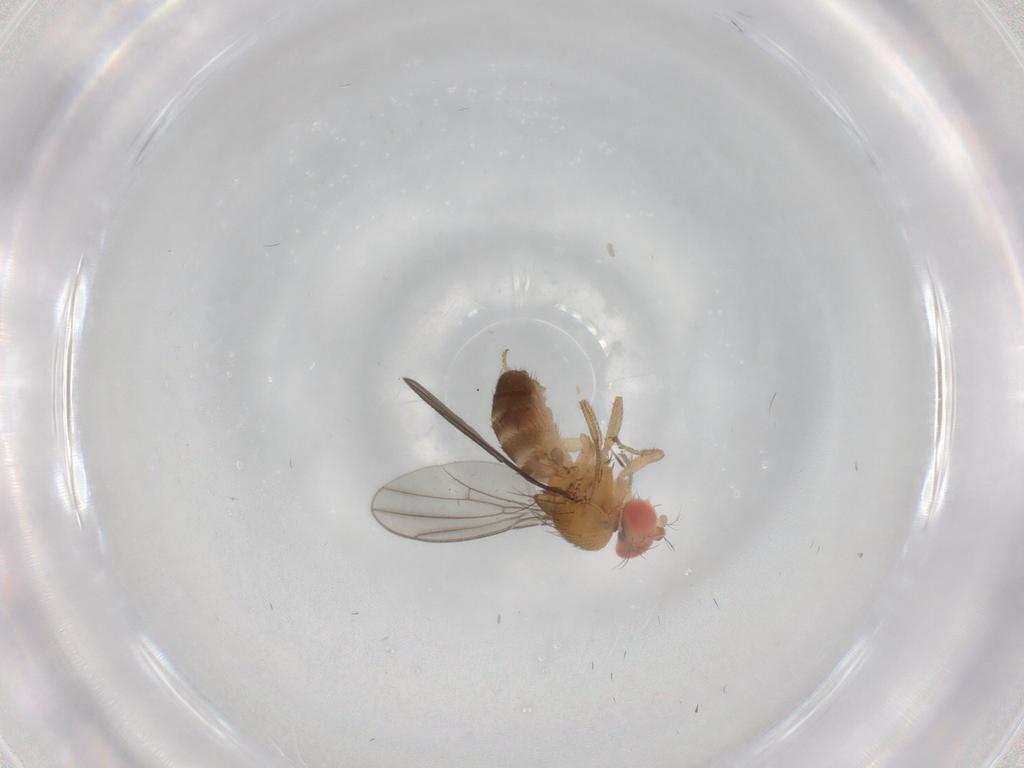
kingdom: Animalia
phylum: Arthropoda
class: Insecta
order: Diptera
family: Drosophilidae
